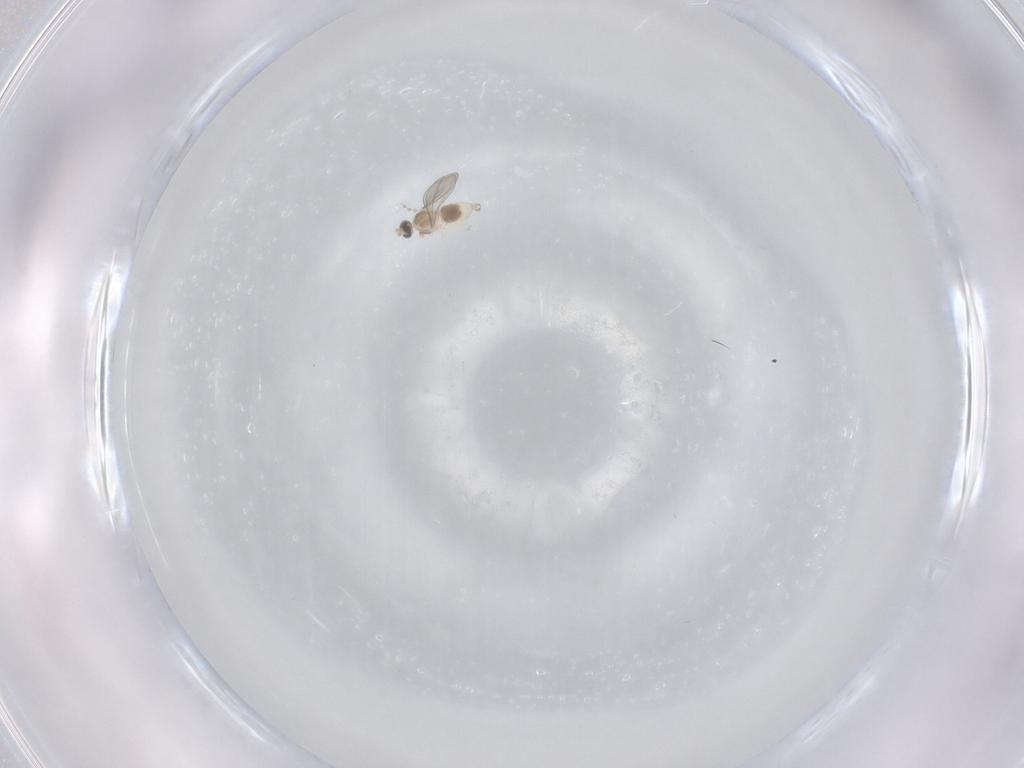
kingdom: Animalia
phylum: Arthropoda
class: Insecta
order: Diptera
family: Cecidomyiidae
